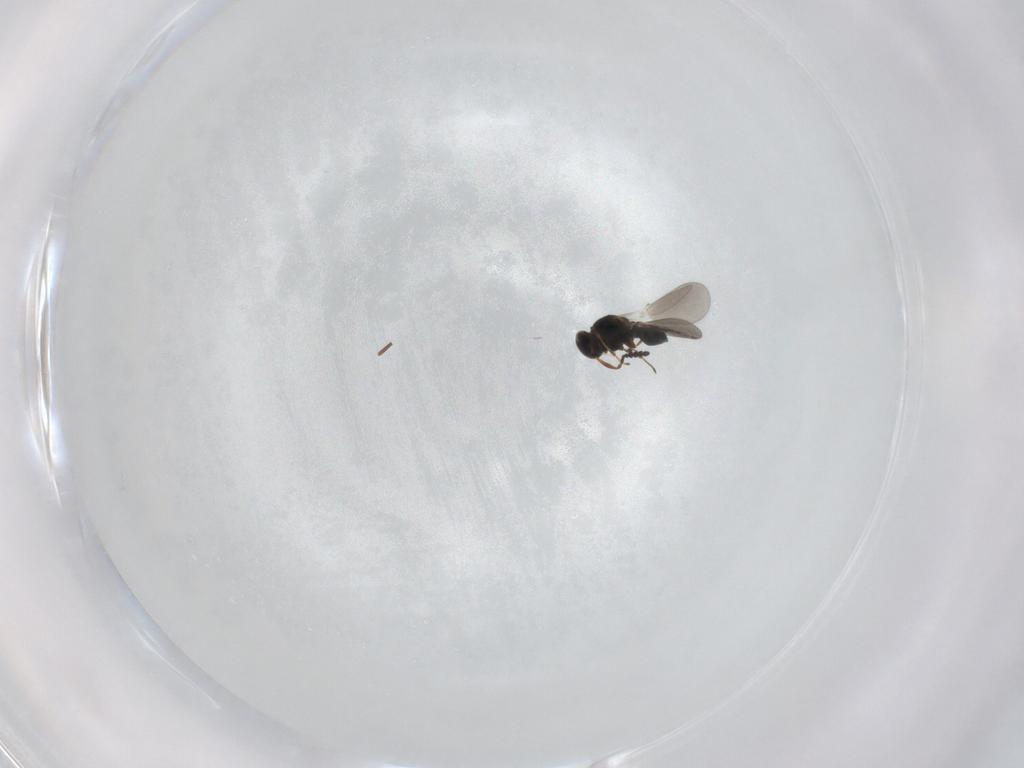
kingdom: Animalia
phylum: Arthropoda
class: Insecta
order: Hymenoptera
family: Platygastridae
